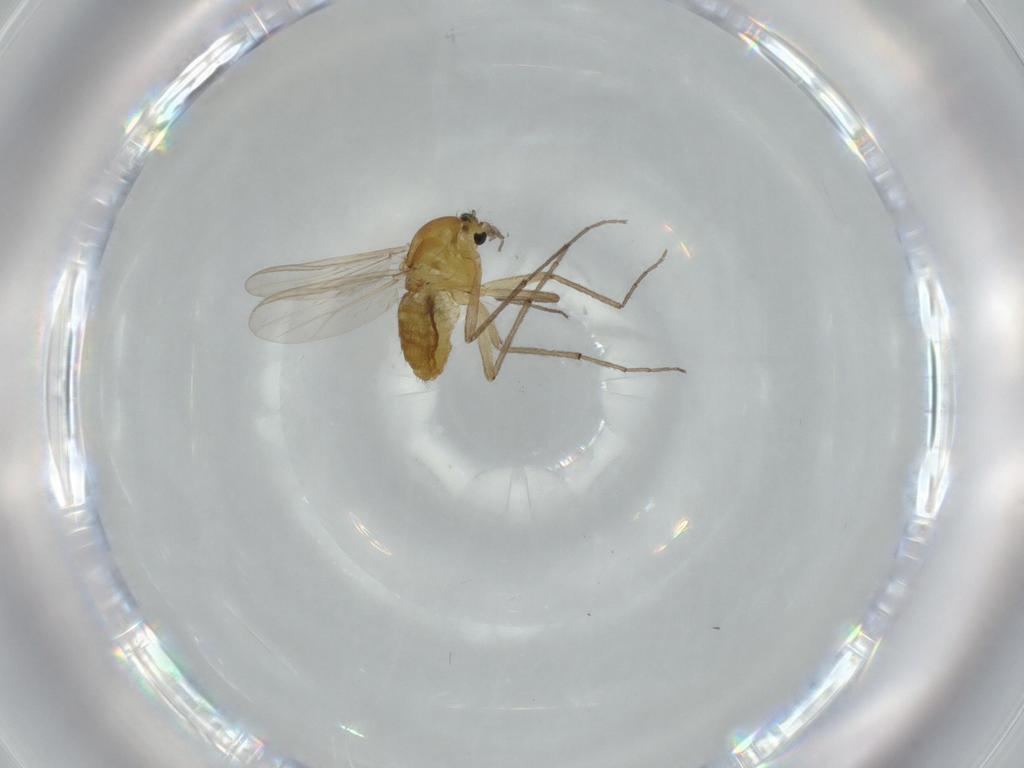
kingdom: Animalia
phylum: Arthropoda
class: Insecta
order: Diptera
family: Chironomidae
